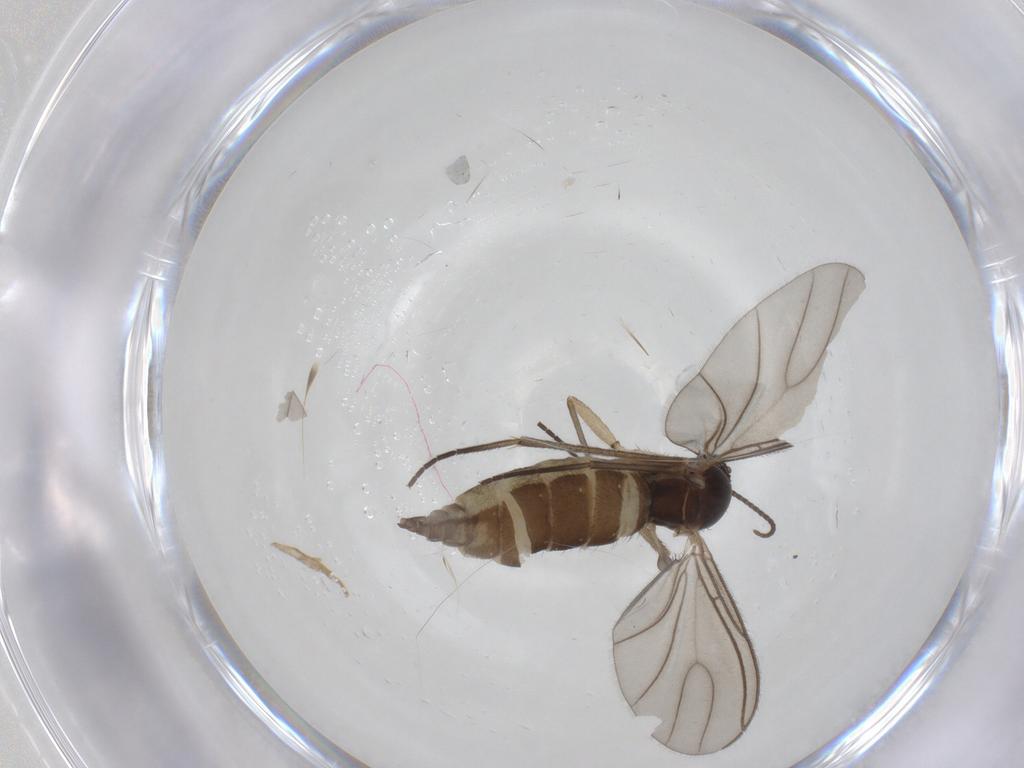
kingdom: Animalia
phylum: Arthropoda
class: Insecta
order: Diptera
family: Sciaridae
